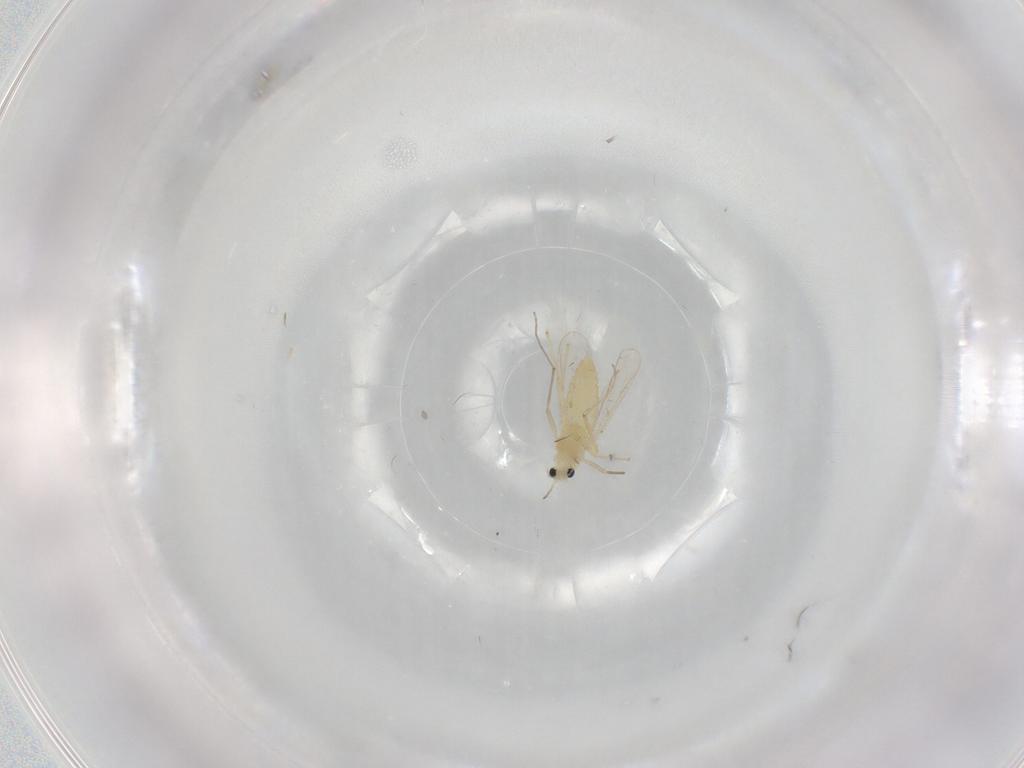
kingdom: Animalia
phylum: Arthropoda
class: Insecta
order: Diptera
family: Chironomidae
